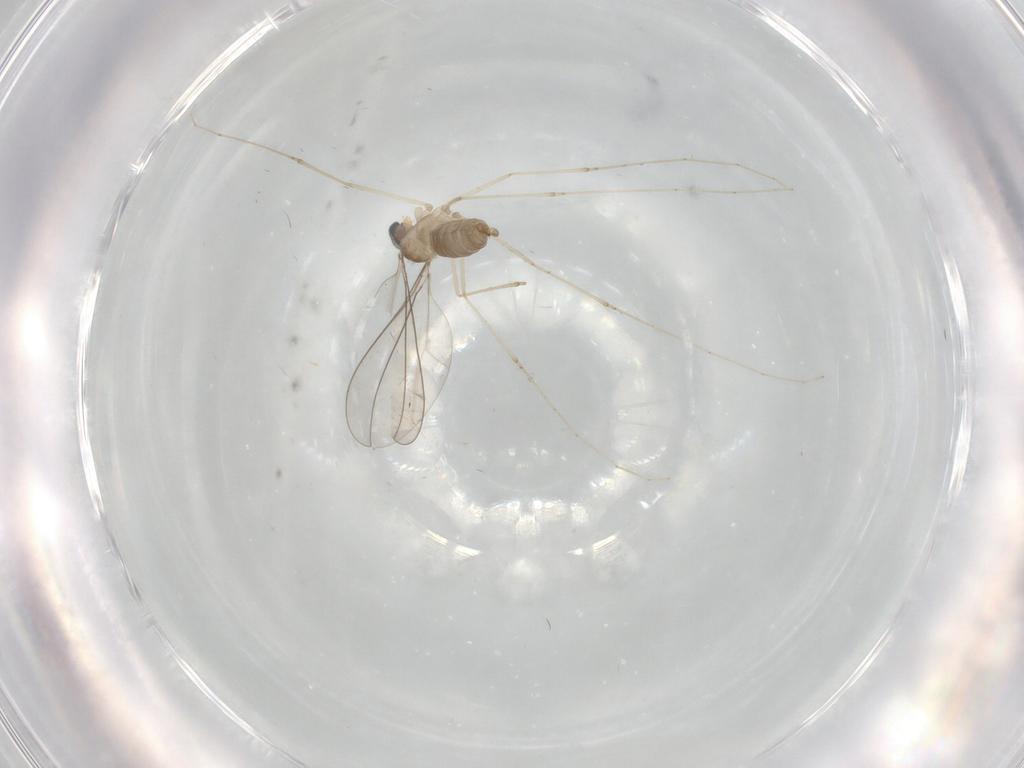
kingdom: Animalia
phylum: Arthropoda
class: Insecta
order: Diptera
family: Cecidomyiidae
